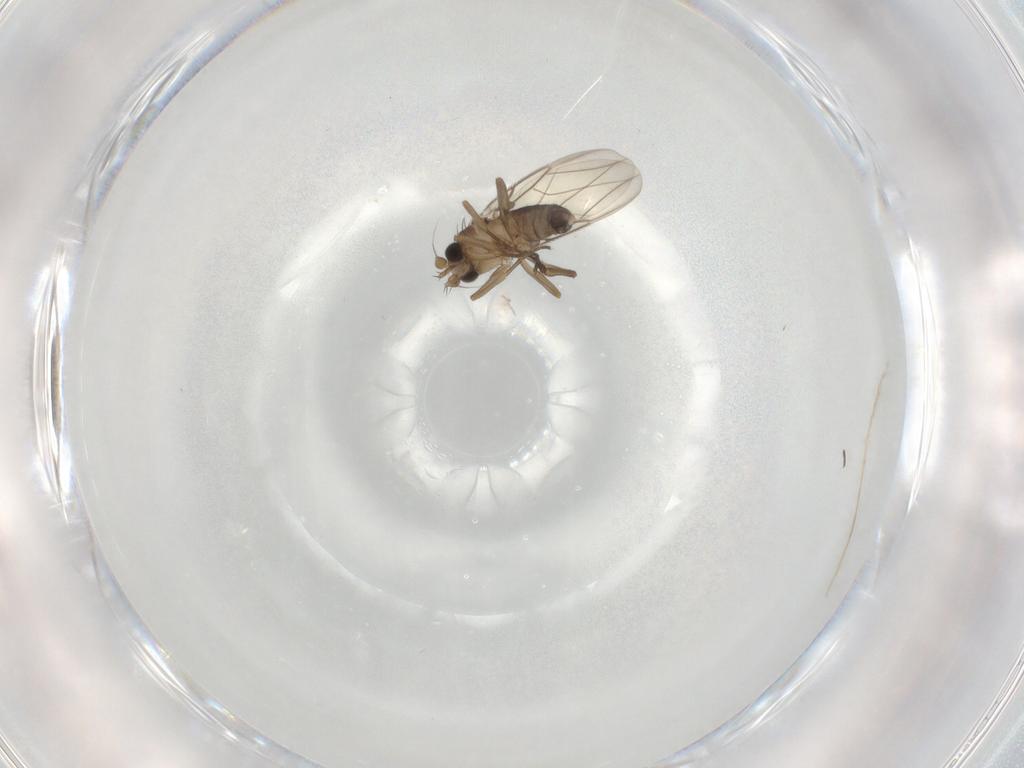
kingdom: Animalia
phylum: Arthropoda
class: Insecta
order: Diptera
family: Phoridae
